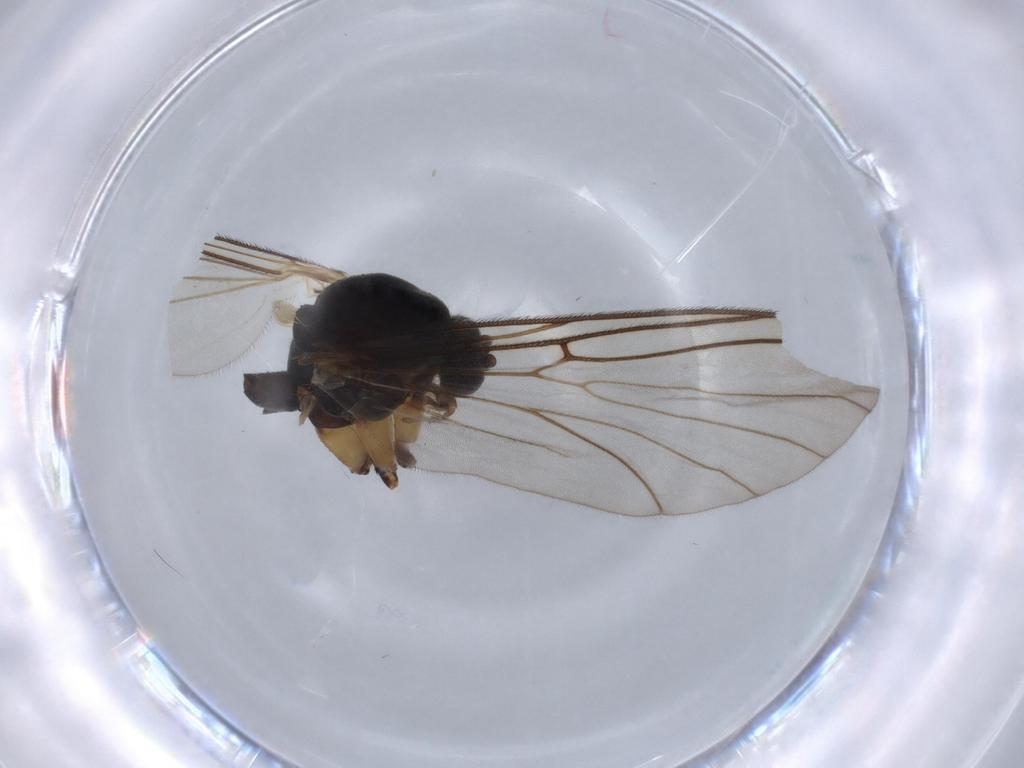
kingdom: Animalia
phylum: Arthropoda
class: Insecta
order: Diptera
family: Mycetophilidae
